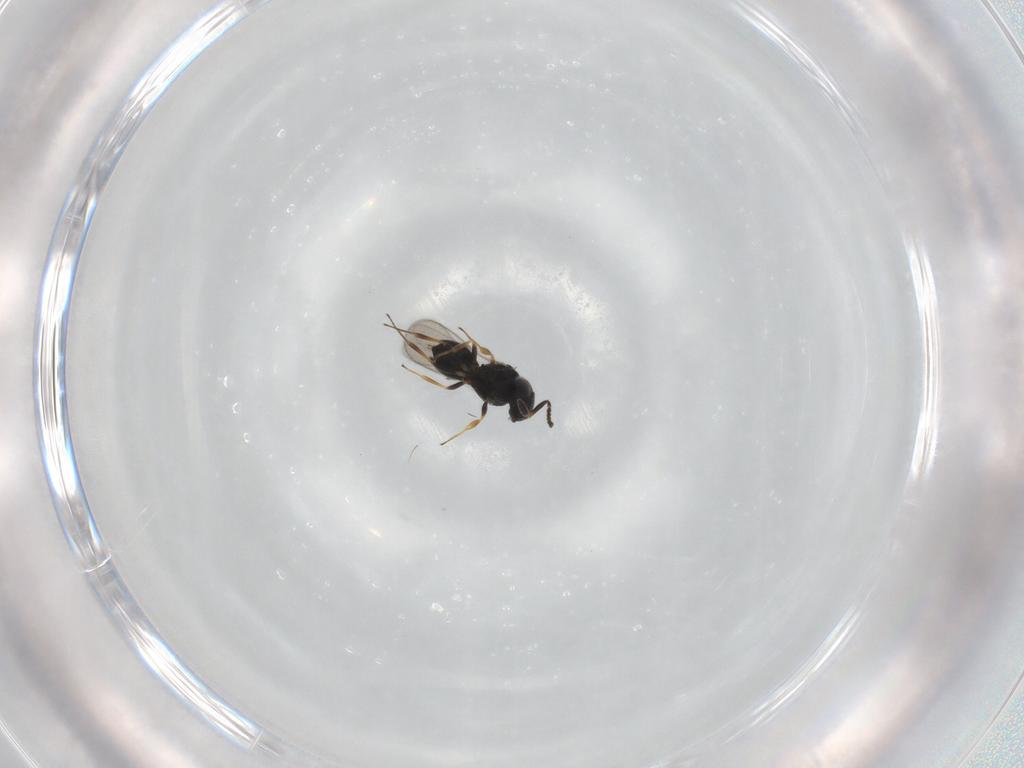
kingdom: Animalia
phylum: Arthropoda
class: Insecta
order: Hymenoptera
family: Scelionidae
